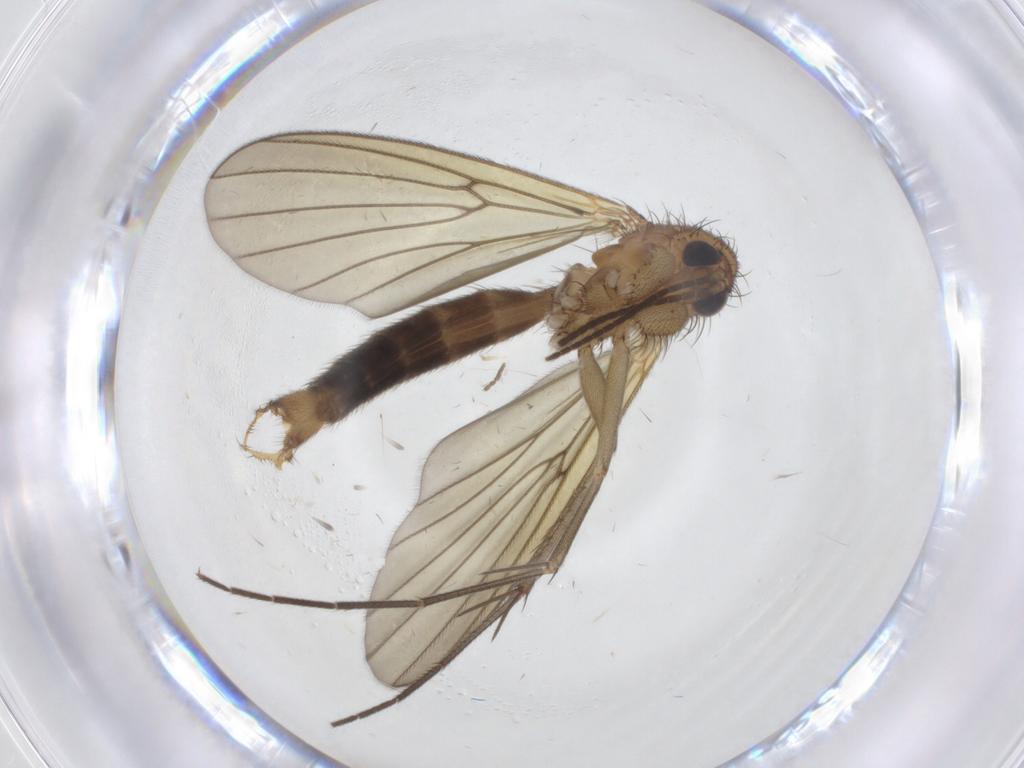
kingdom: Animalia
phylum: Arthropoda
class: Insecta
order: Diptera
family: Mycetophilidae
